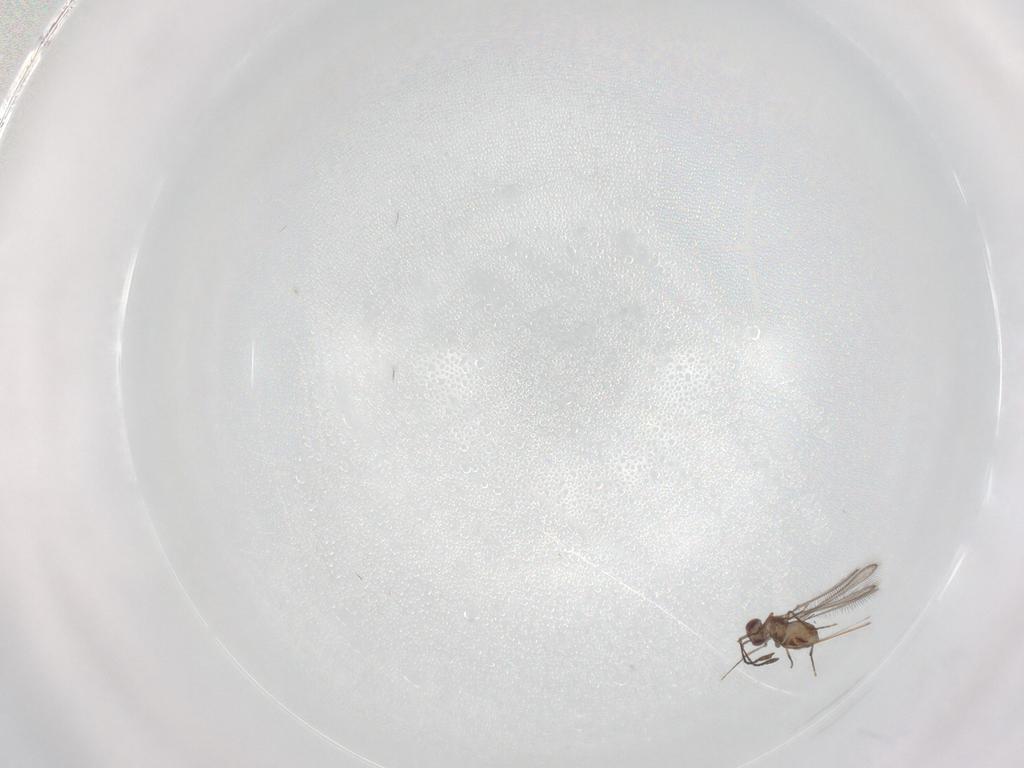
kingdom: Animalia
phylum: Arthropoda
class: Insecta
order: Hymenoptera
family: Mymaridae
